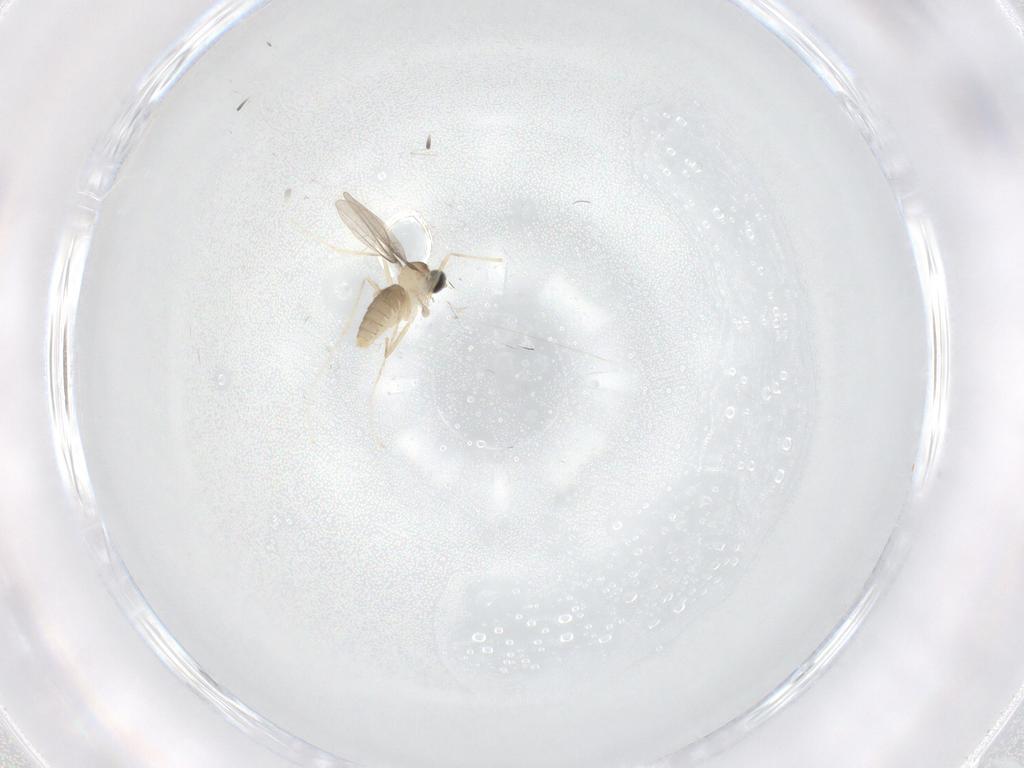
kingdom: Animalia
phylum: Arthropoda
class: Insecta
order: Diptera
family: Cecidomyiidae
